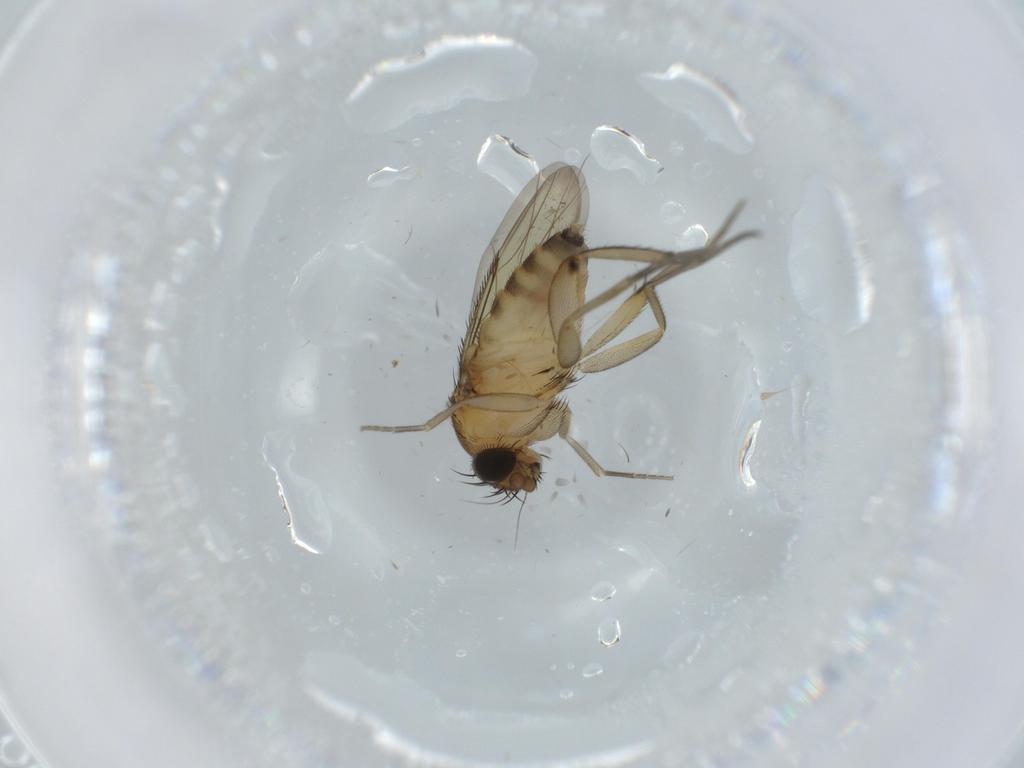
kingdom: Animalia
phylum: Arthropoda
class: Insecta
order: Diptera
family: Phoridae
